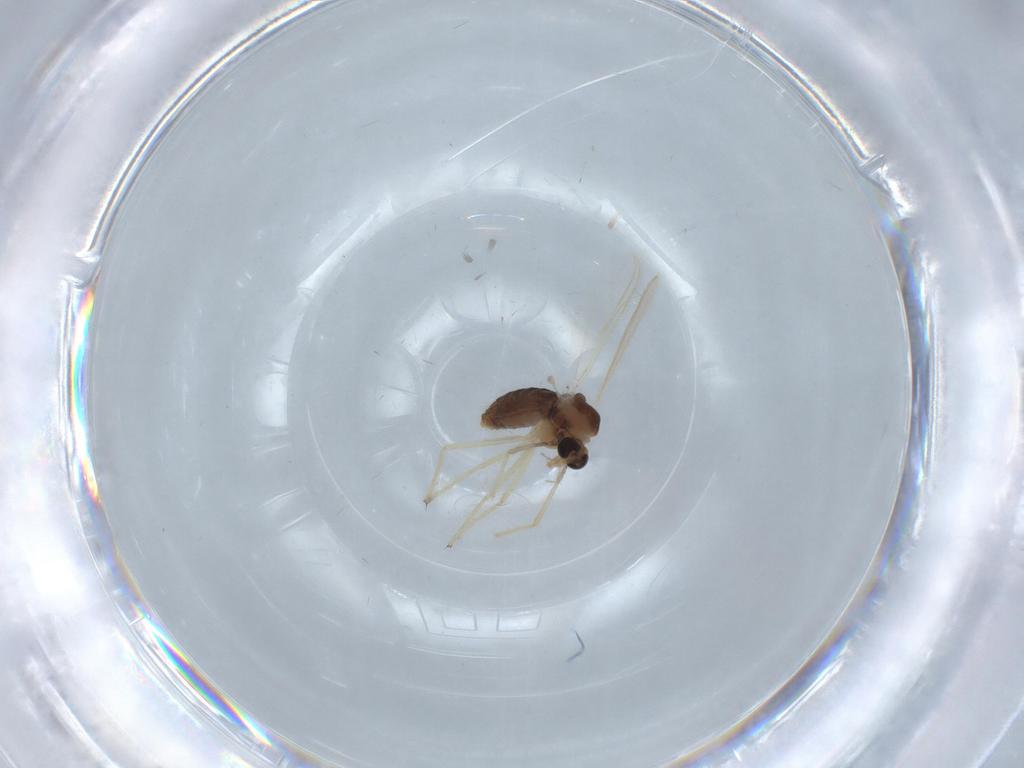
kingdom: Animalia
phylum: Arthropoda
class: Insecta
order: Diptera
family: Chironomidae
